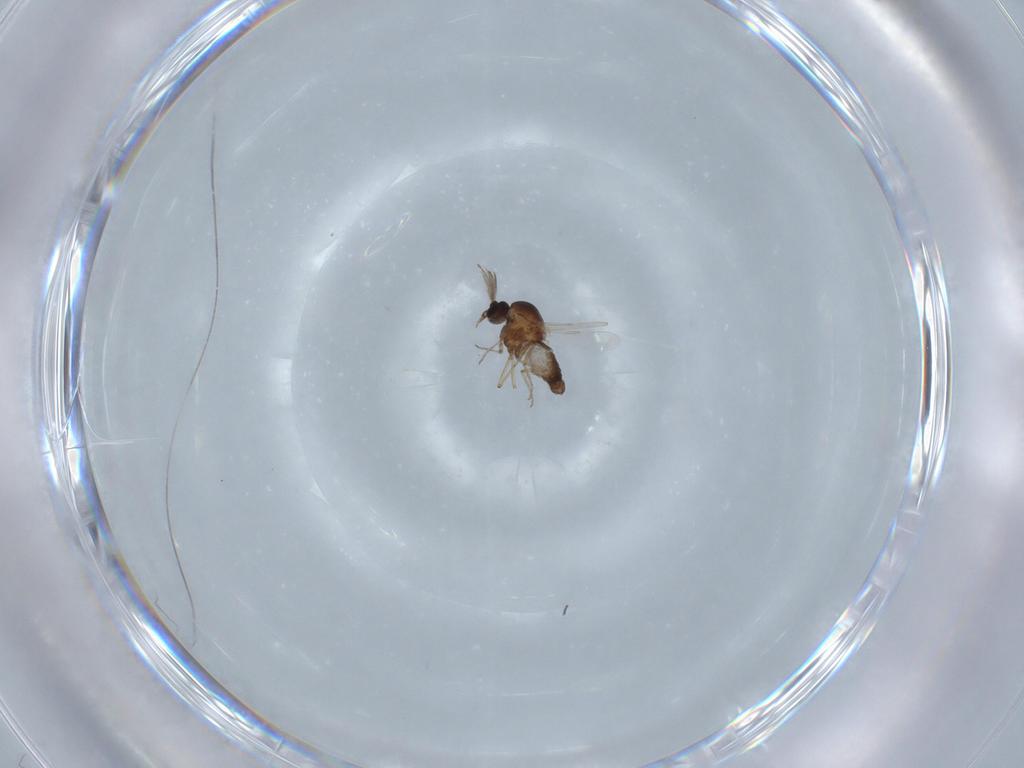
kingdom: Animalia
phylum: Arthropoda
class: Insecta
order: Diptera
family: Ceratopogonidae
